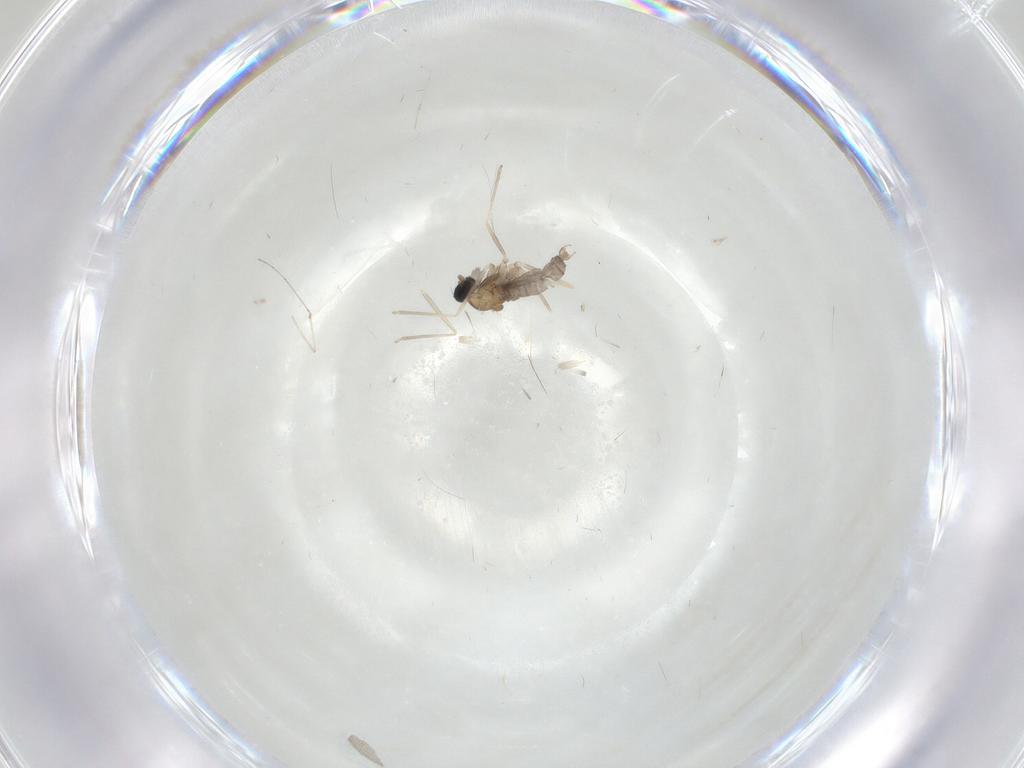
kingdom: Animalia
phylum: Arthropoda
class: Insecta
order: Diptera
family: Cecidomyiidae
